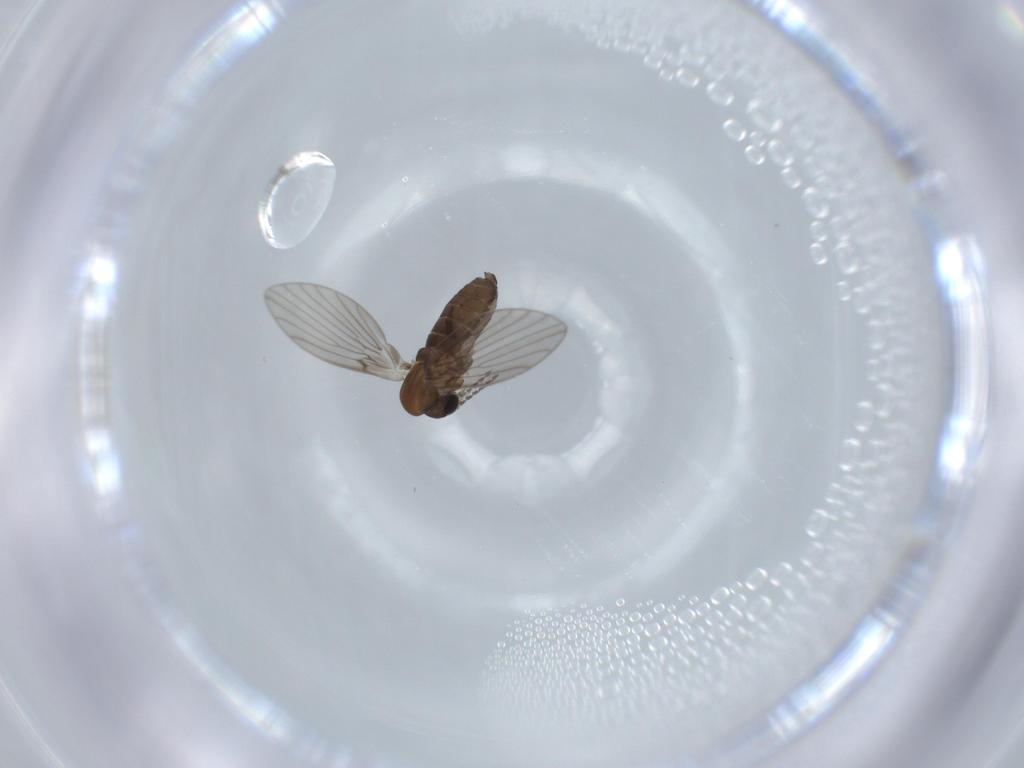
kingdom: Animalia
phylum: Arthropoda
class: Insecta
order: Diptera
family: Psychodidae
